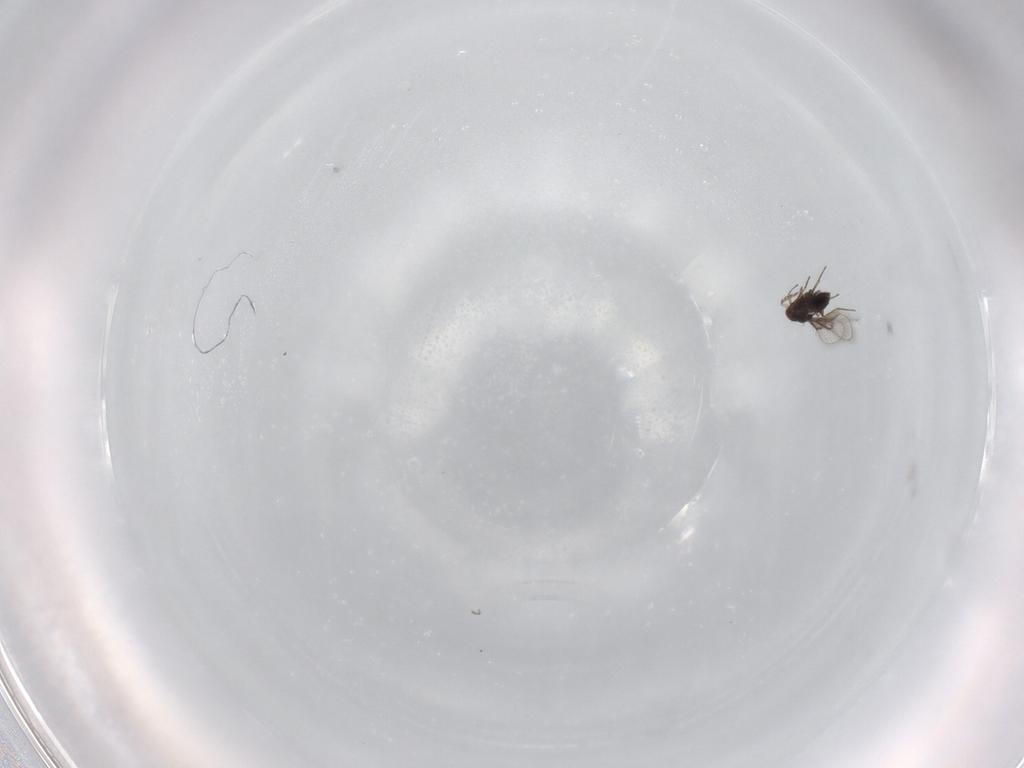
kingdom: Animalia
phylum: Arthropoda
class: Insecta
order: Hymenoptera
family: Trichogrammatidae
